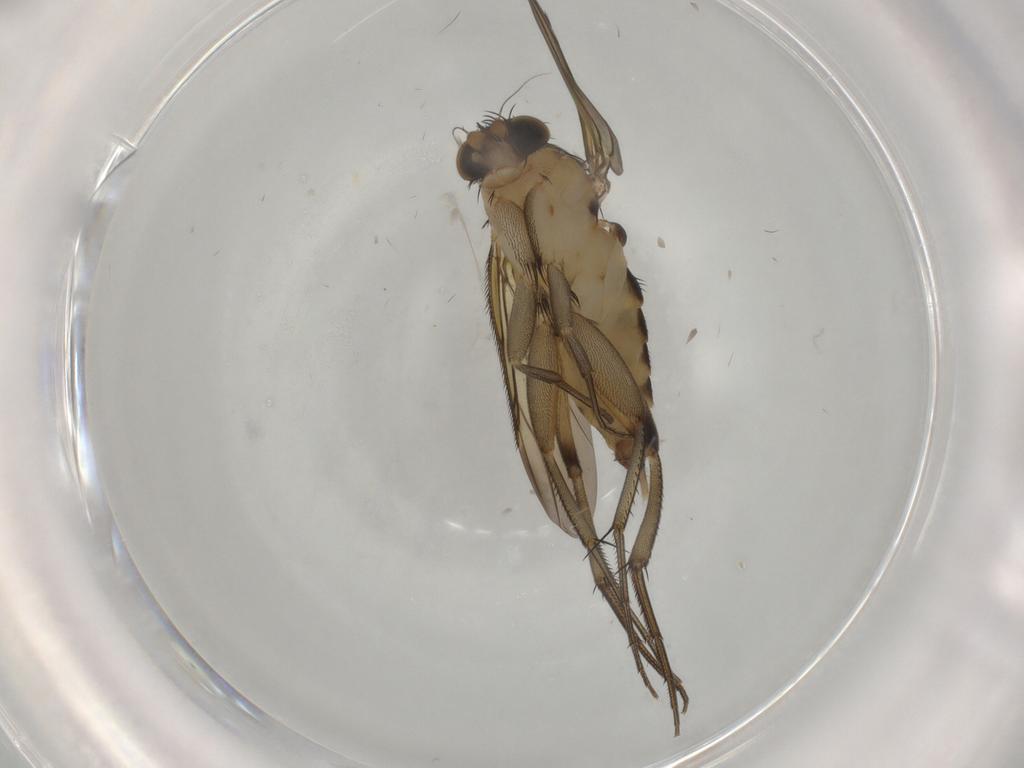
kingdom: Animalia
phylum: Arthropoda
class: Insecta
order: Diptera
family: Phoridae
